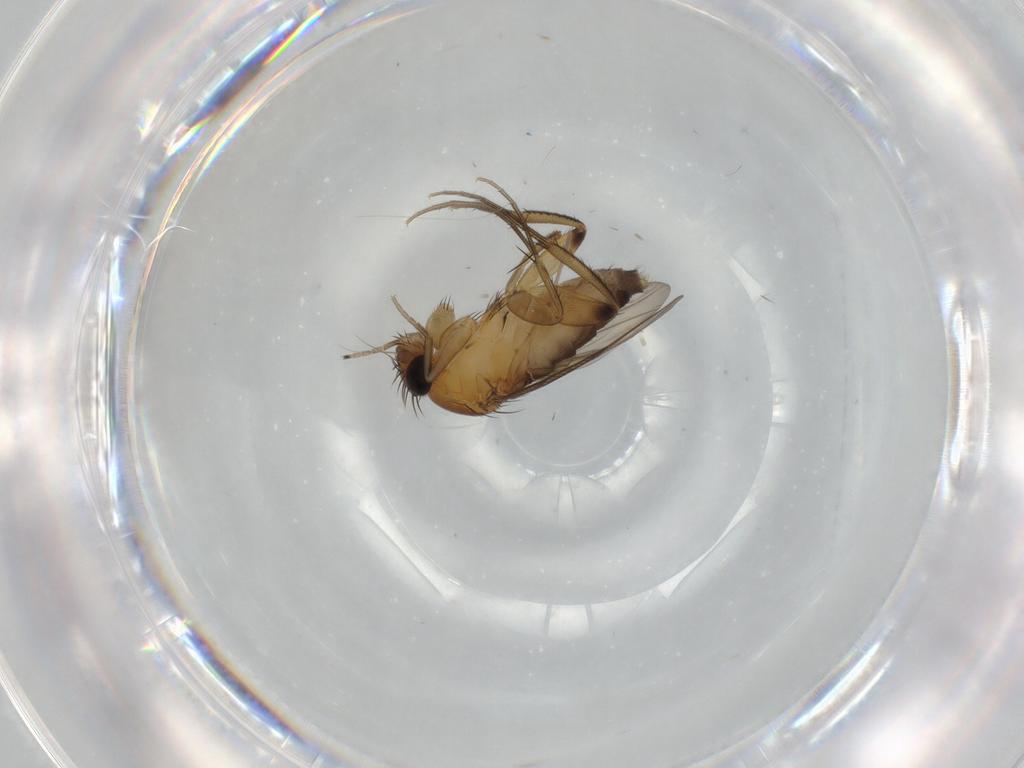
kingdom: Animalia
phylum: Arthropoda
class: Insecta
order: Diptera
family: Phoridae
